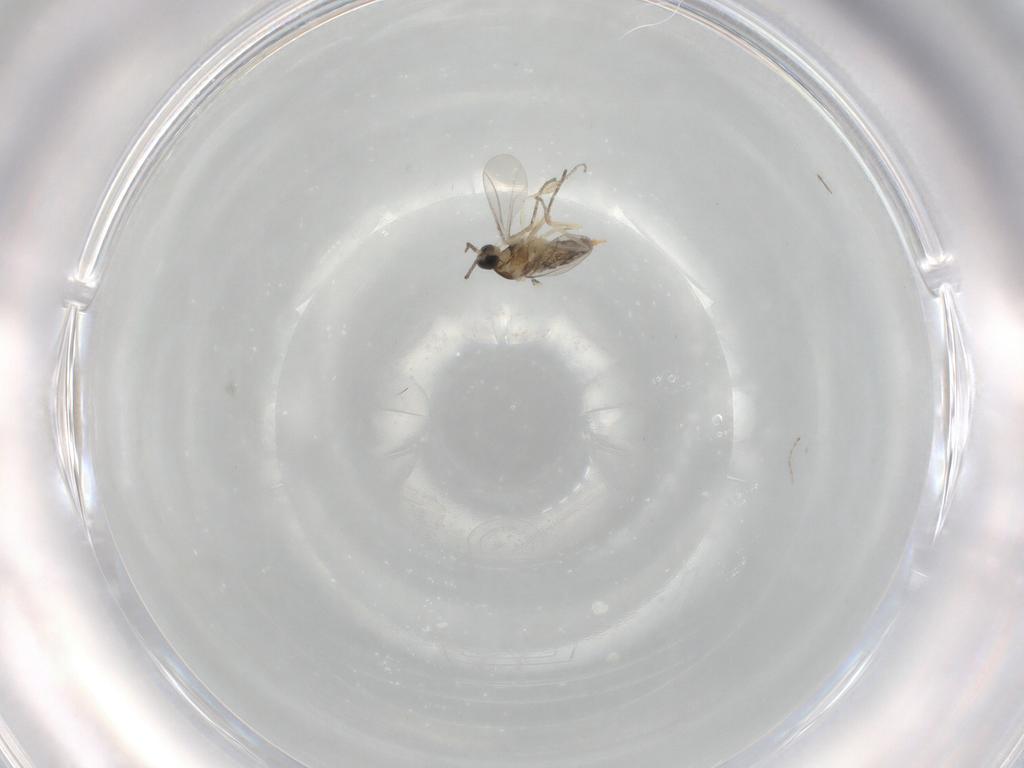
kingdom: Animalia
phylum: Arthropoda
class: Insecta
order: Diptera
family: Cecidomyiidae
